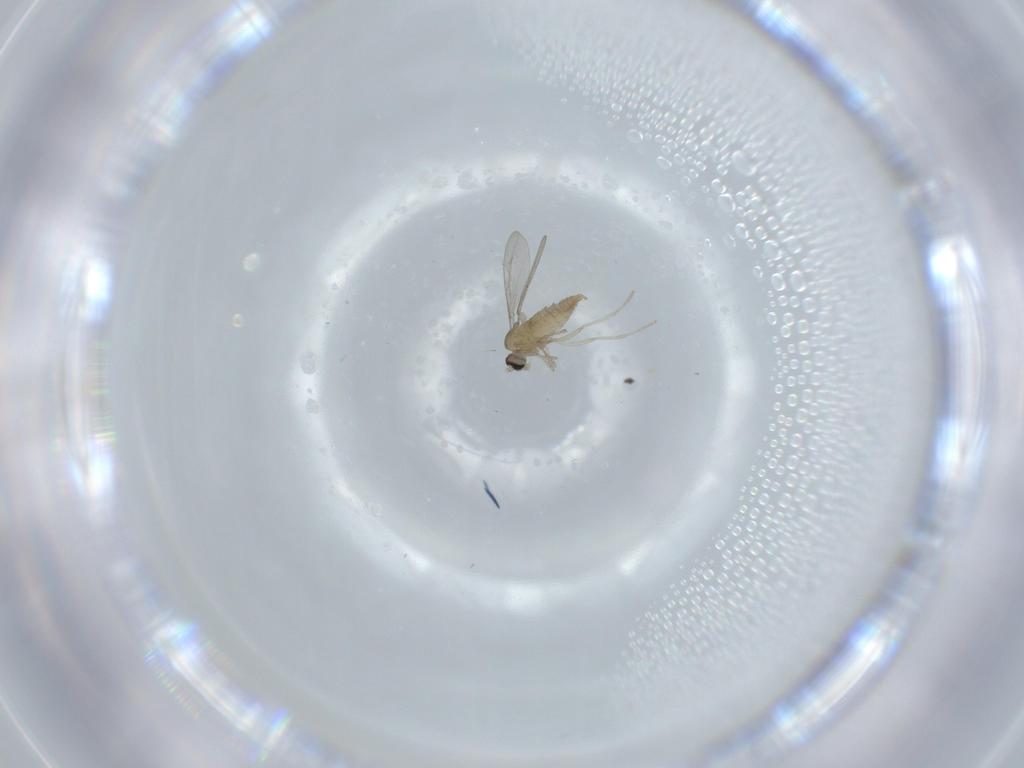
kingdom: Animalia
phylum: Arthropoda
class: Insecta
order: Diptera
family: Cecidomyiidae
